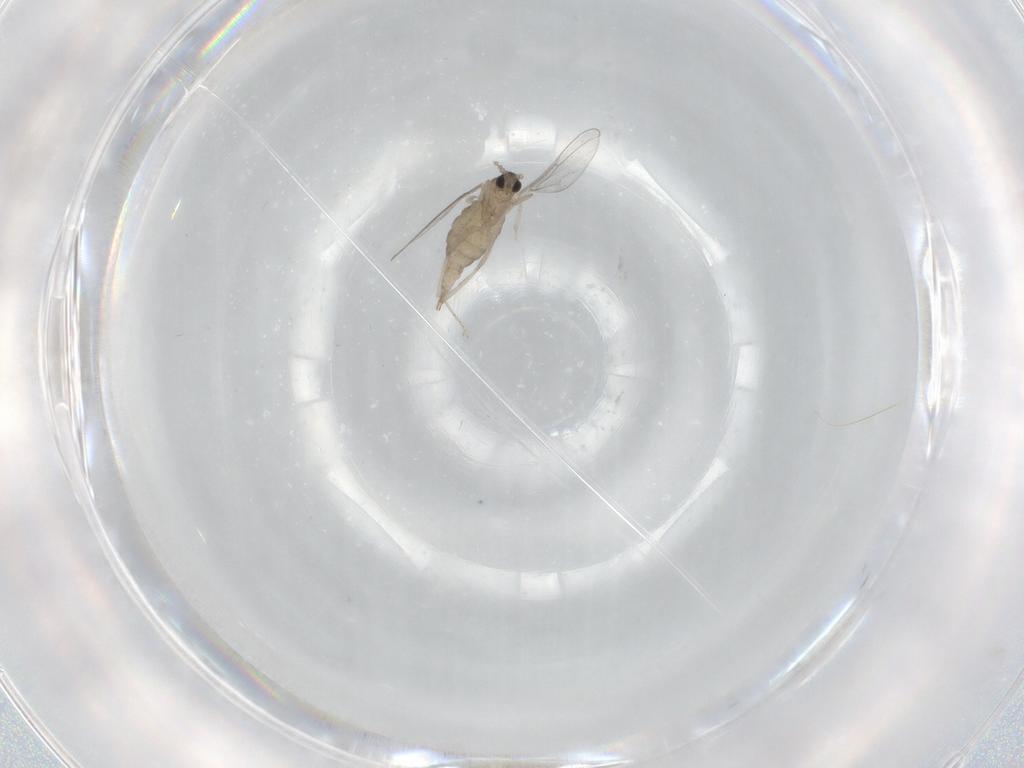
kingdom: Animalia
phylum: Arthropoda
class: Insecta
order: Diptera
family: Cecidomyiidae
